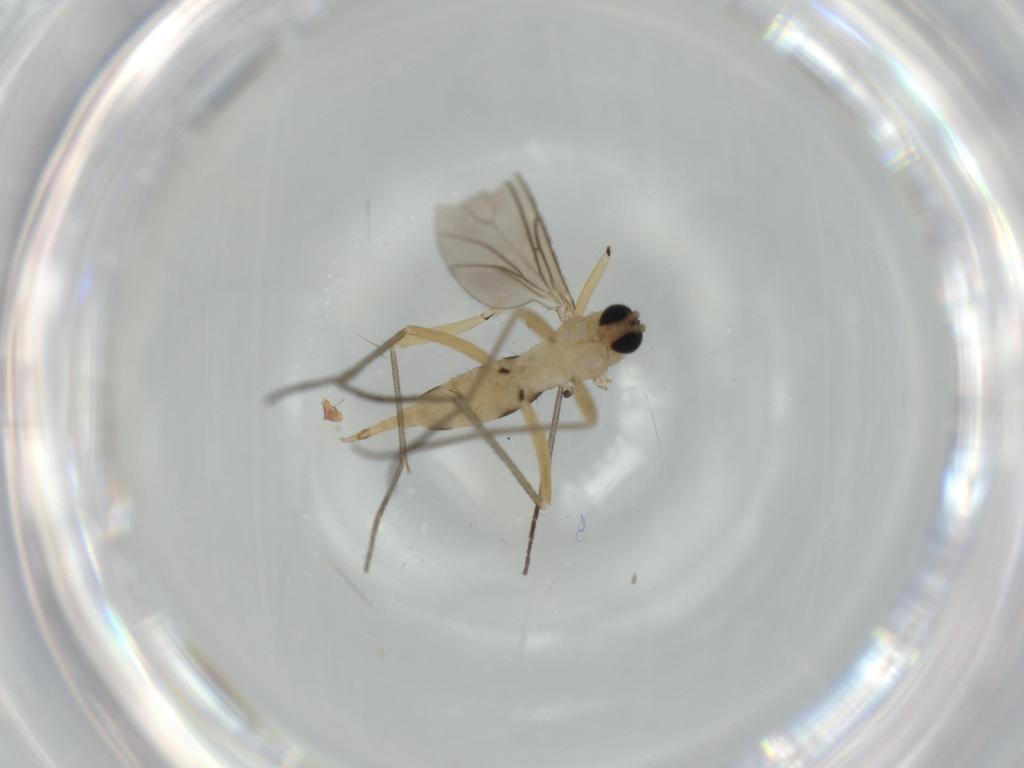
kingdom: Animalia
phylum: Arthropoda
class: Insecta
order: Diptera
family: Sciaridae
